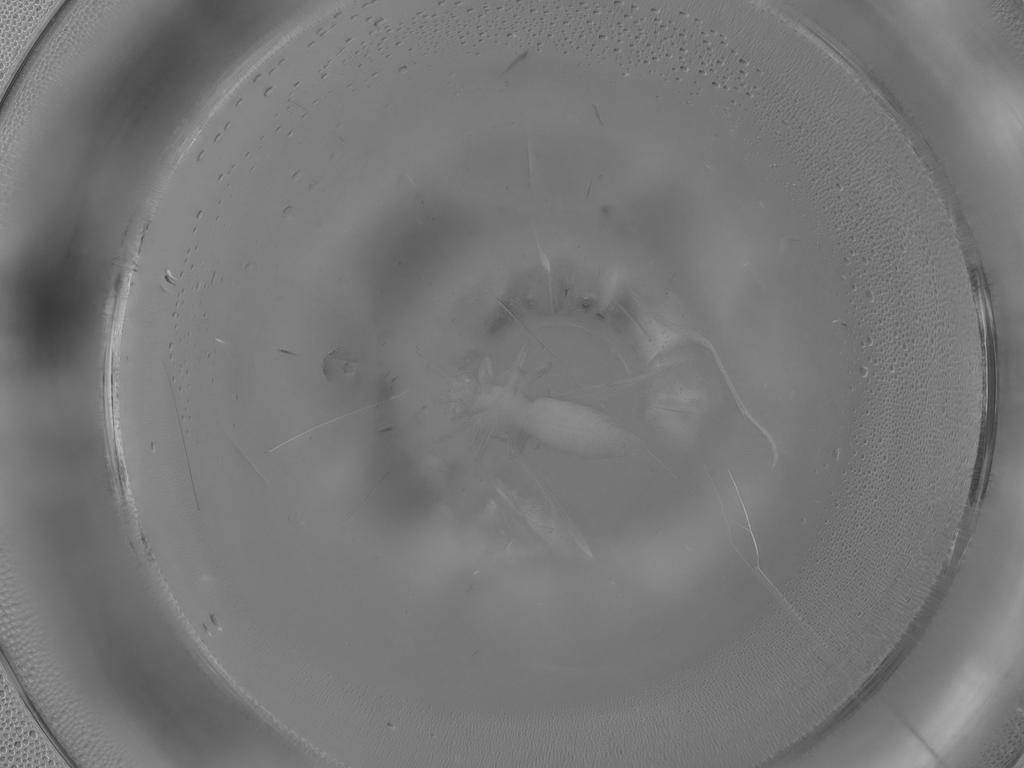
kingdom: Animalia
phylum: Arthropoda
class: Insecta
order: Diptera
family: Ceratopogonidae
